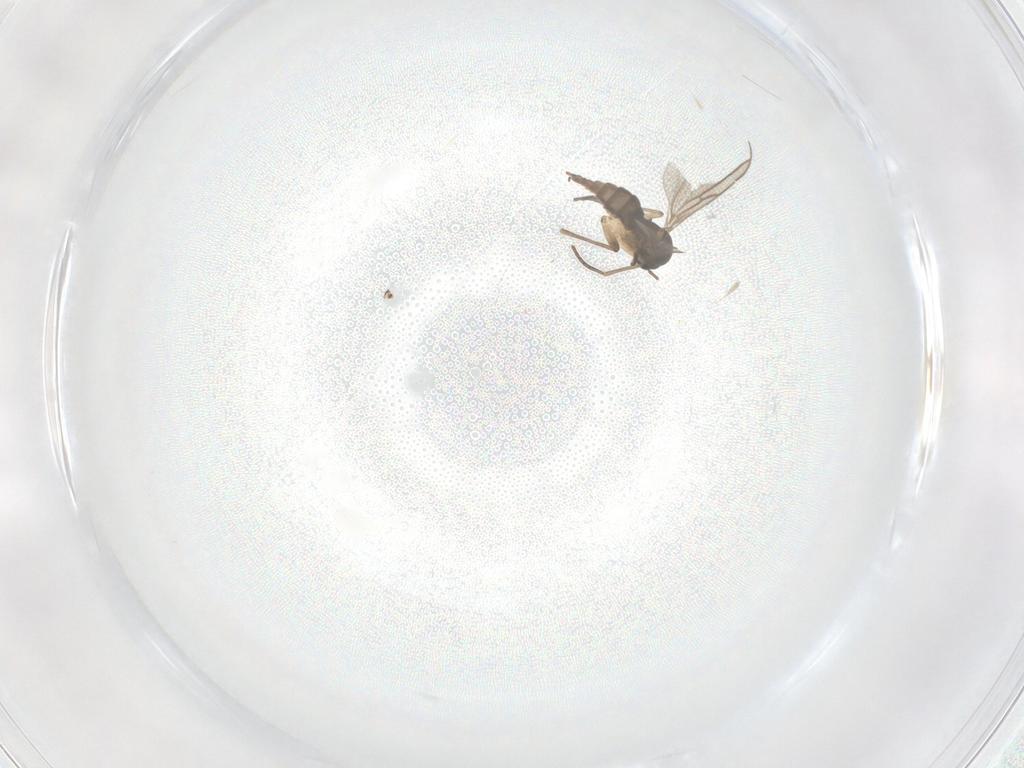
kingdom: Animalia
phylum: Arthropoda
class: Insecta
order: Diptera
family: Sciaridae
